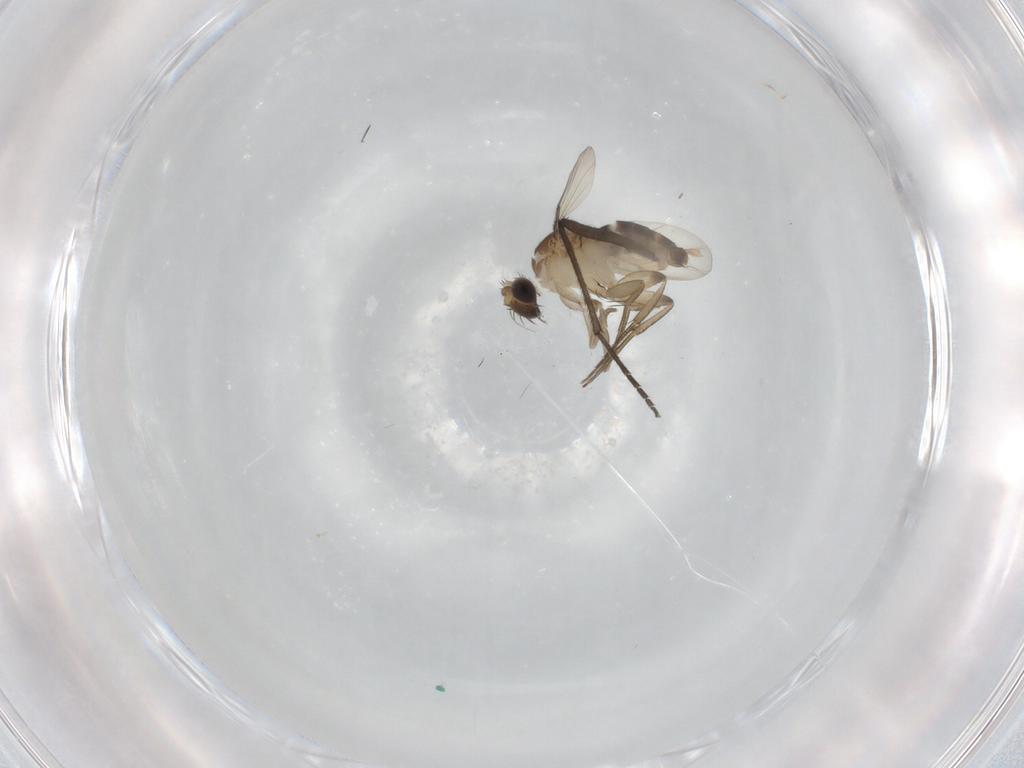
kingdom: Animalia
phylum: Arthropoda
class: Insecta
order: Diptera
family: Phoridae
